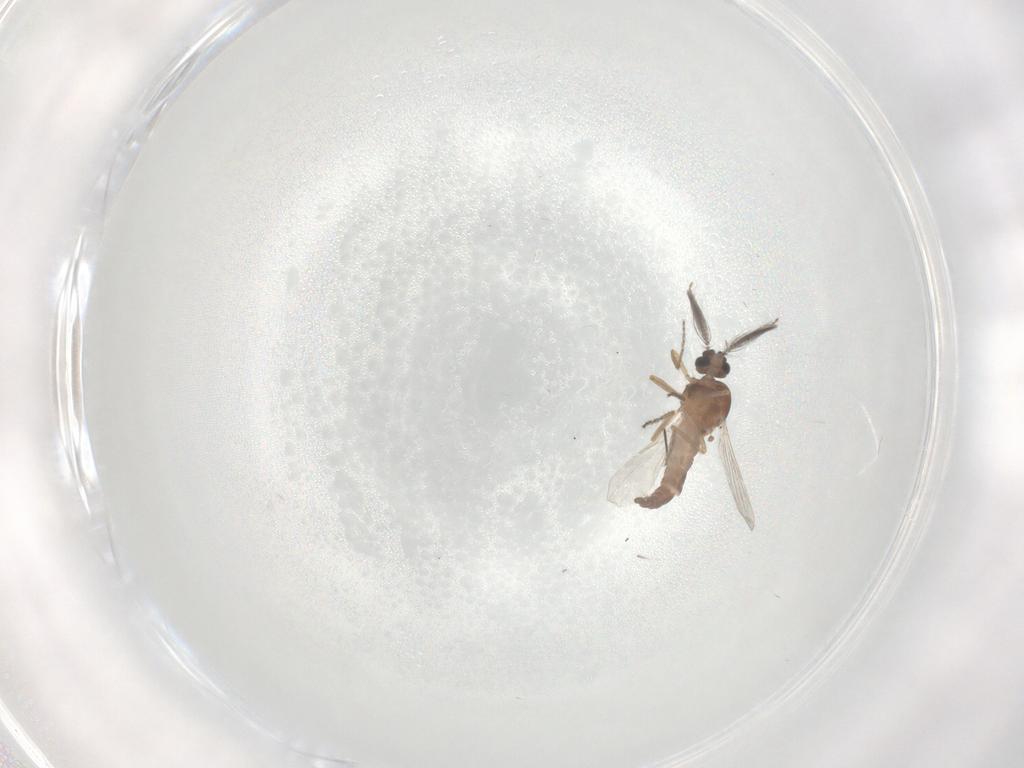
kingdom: Animalia
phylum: Arthropoda
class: Insecta
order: Diptera
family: Ceratopogonidae
